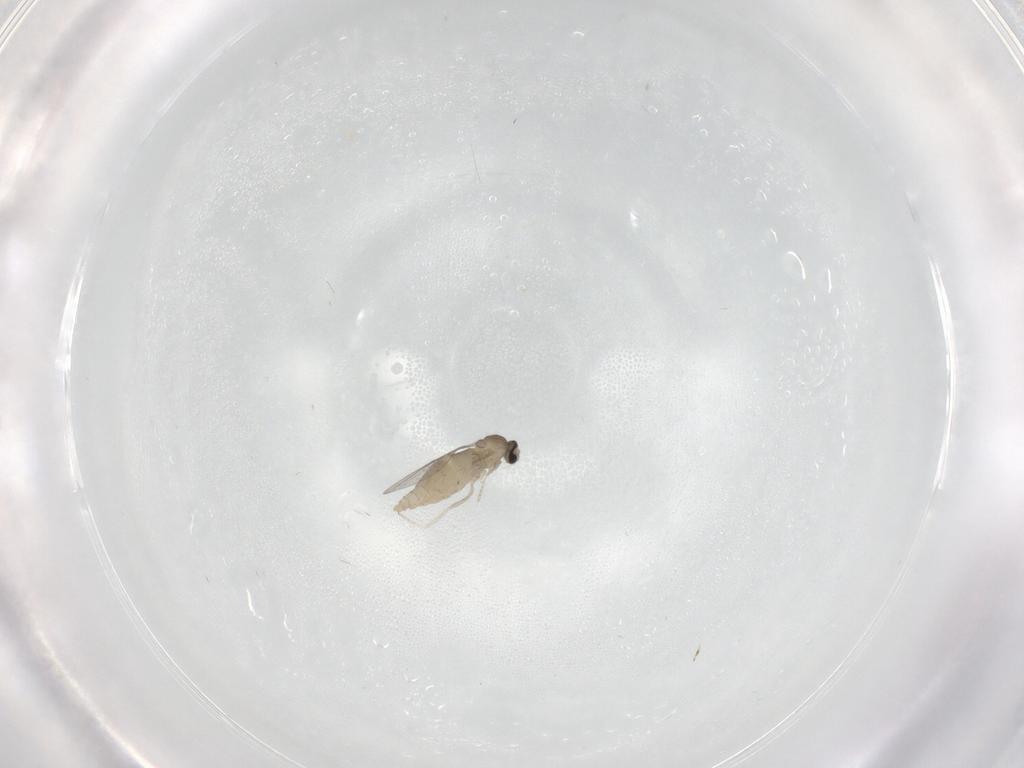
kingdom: Animalia
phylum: Arthropoda
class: Insecta
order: Diptera
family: Cecidomyiidae
